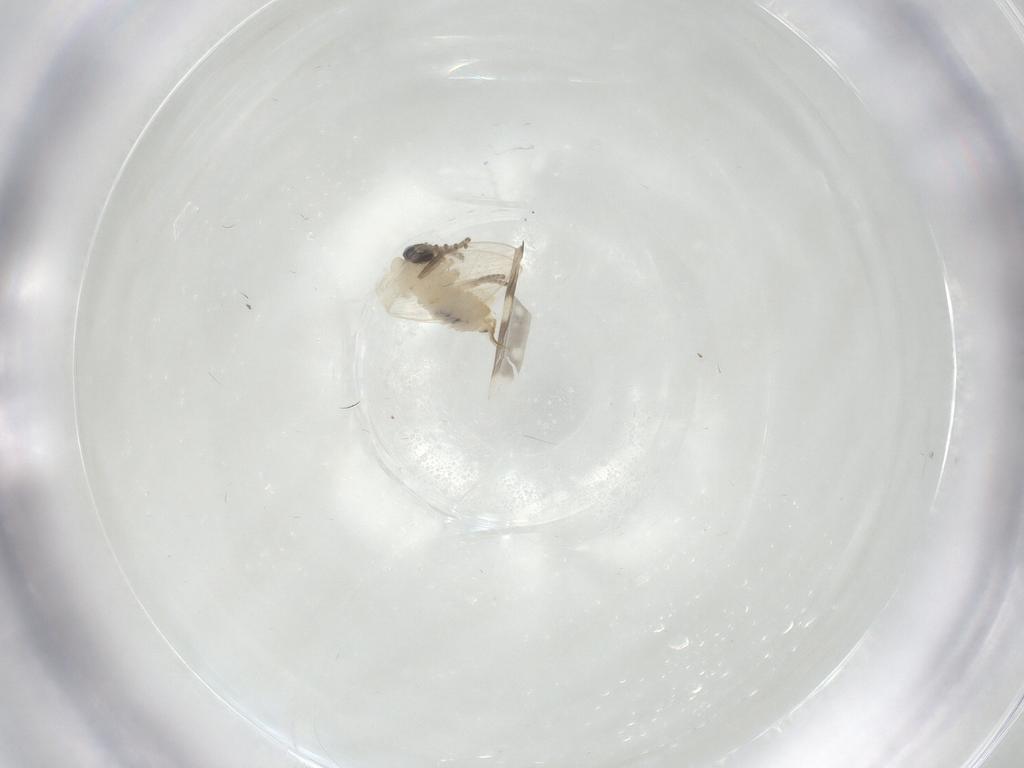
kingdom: Animalia
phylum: Arthropoda
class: Insecta
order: Diptera
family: Psychodidae
